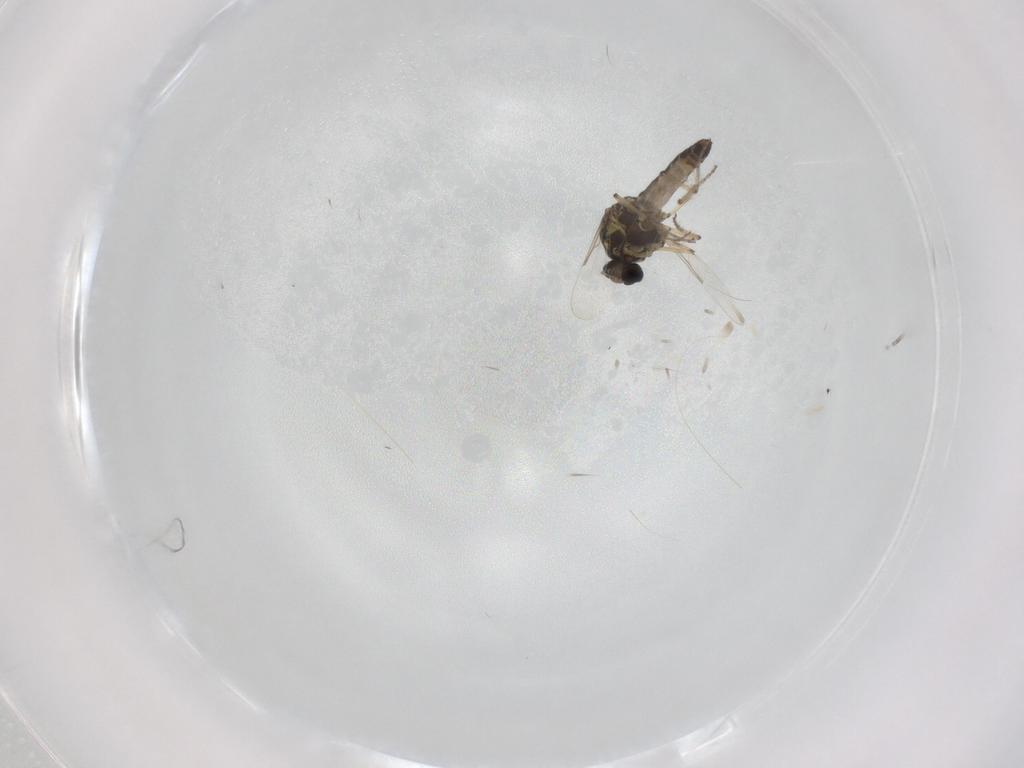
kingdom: Animalia
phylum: Arthropoda
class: Insecta
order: Diptera
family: Ceratopogonidae
